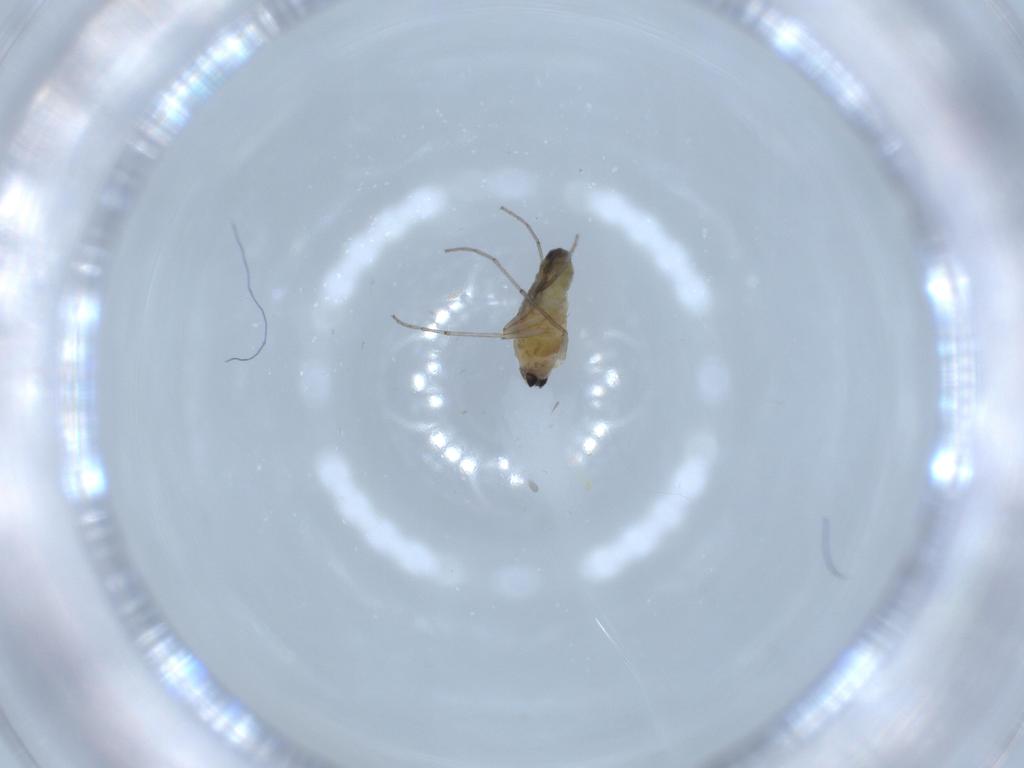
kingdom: Animalia
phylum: Arthropoda
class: Insecta
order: Diptera
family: Chironomidae
